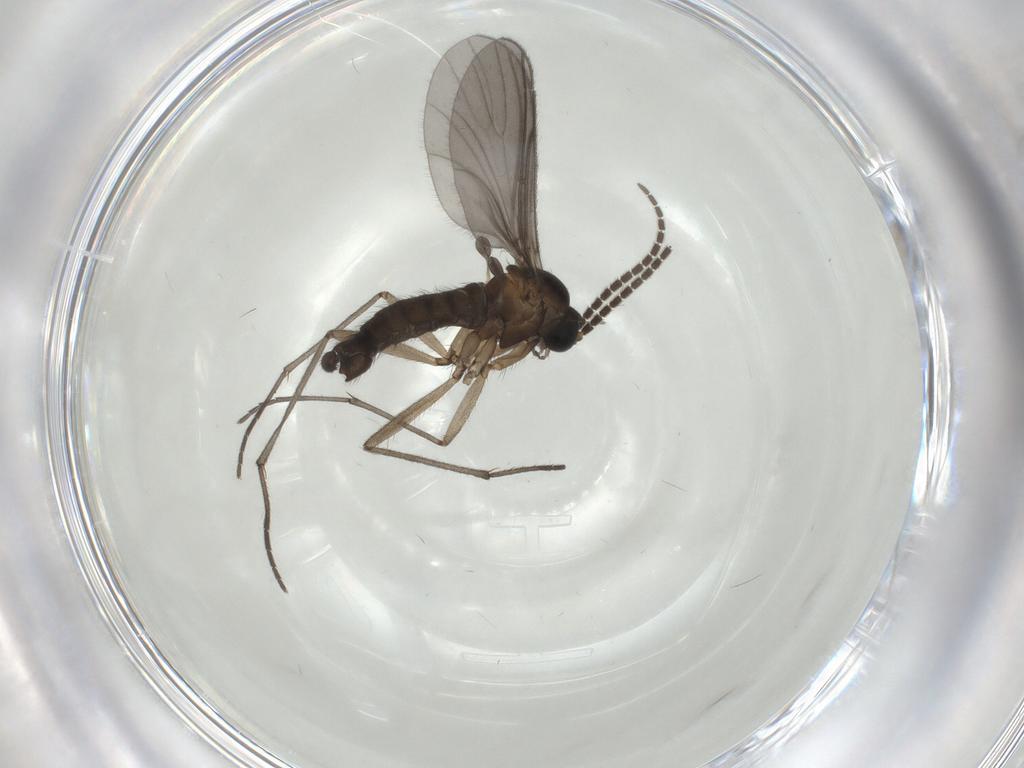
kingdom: Animalia
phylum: Arthropoda
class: Insecta
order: Diptera
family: Sciaridae
